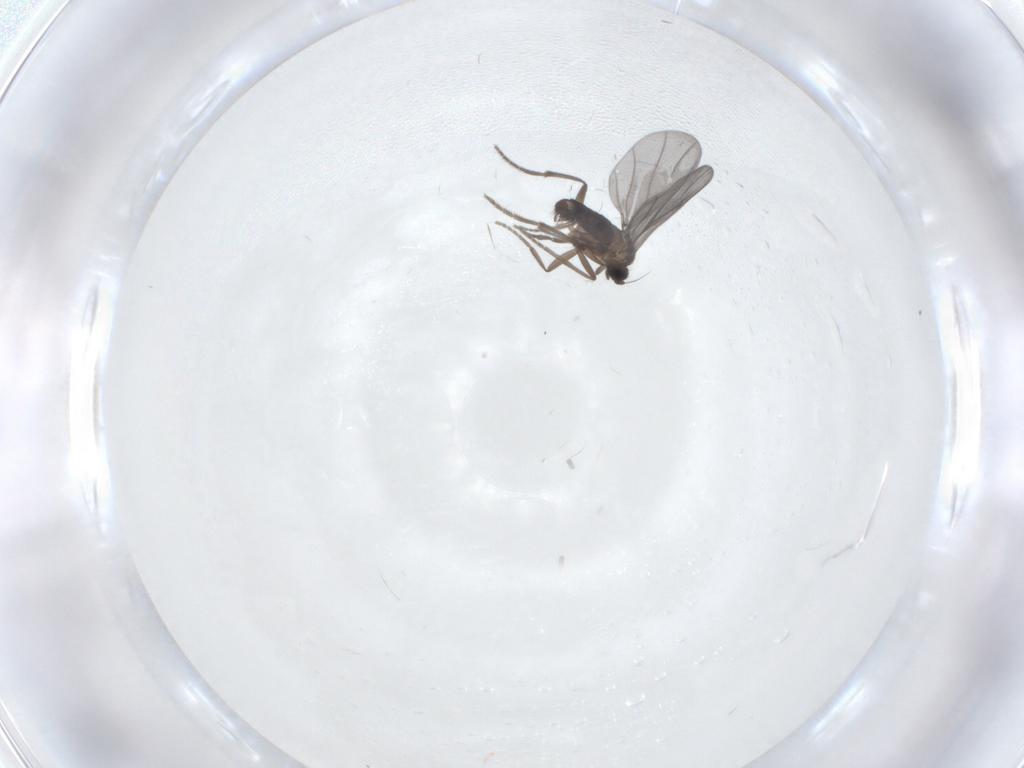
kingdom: Animalia
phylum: Arthropoda
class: Insecta
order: Diptera
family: Phoridae
